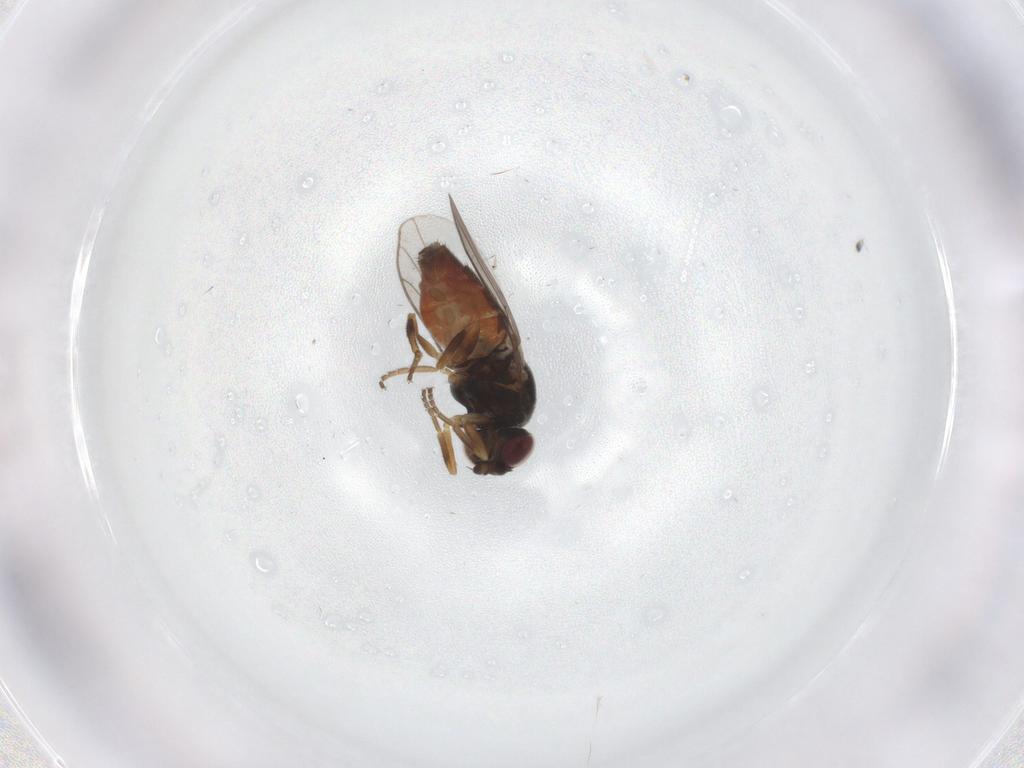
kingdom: Animalia
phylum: Arthropoda
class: Insecta
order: Diptera
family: Chloropidae
